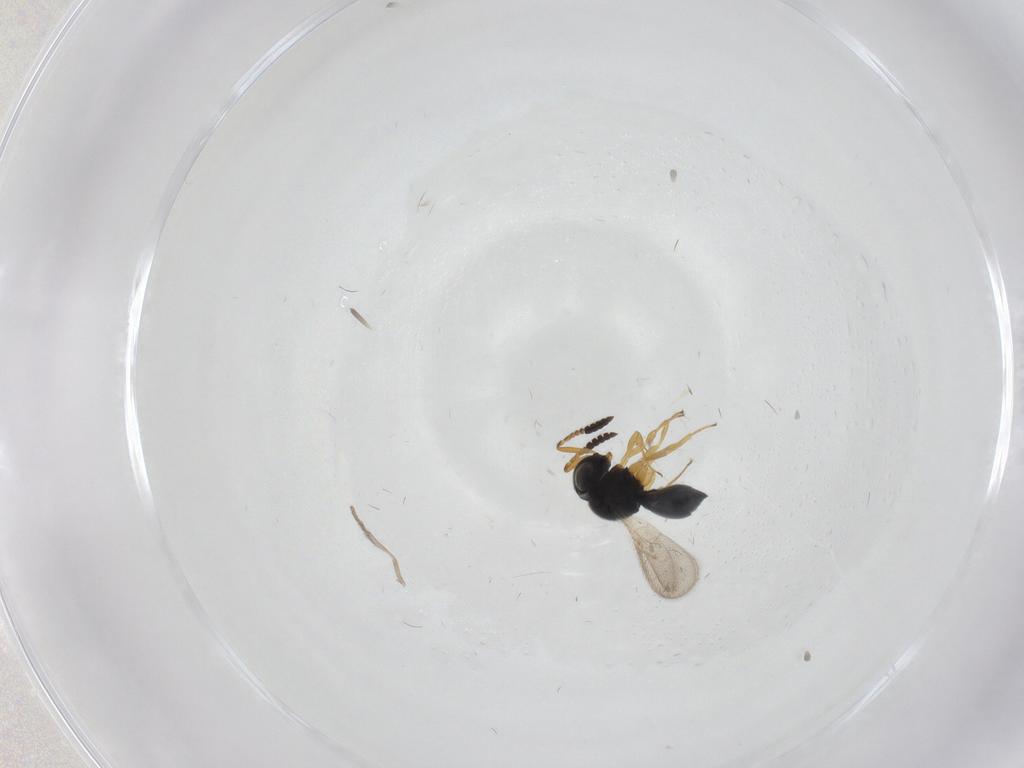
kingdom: Animalia
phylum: Arthropoda
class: Insecta
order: Hymenoptera
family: Scelionidae
